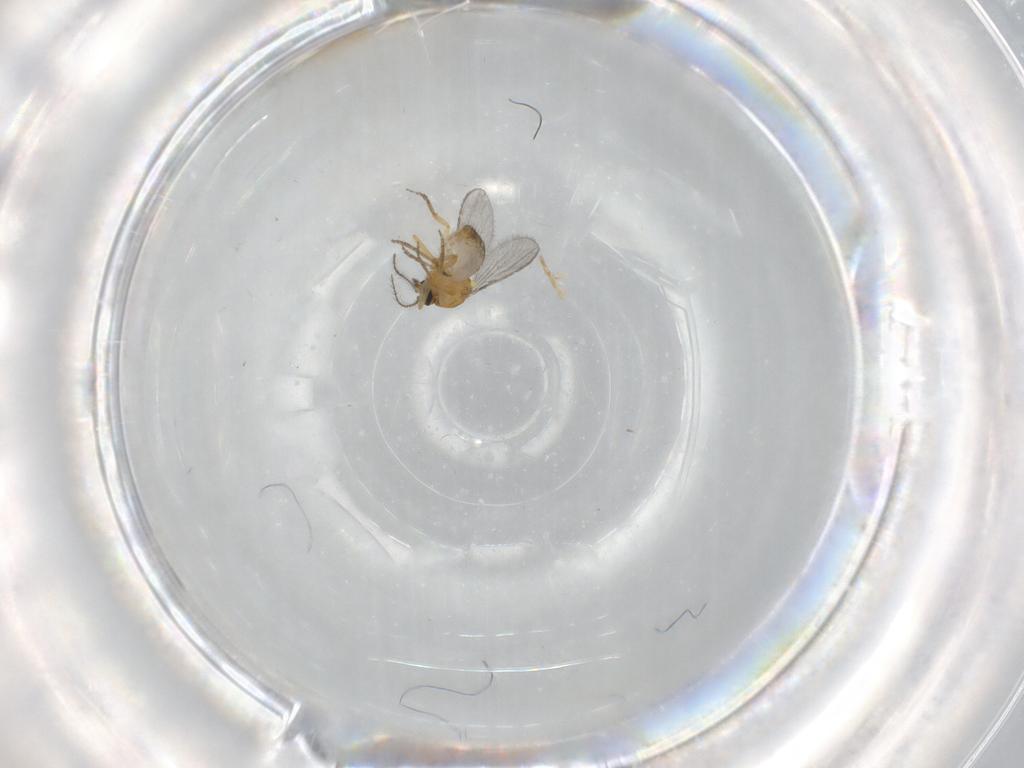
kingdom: Animalia
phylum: Arthropoda
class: Insecta
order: Diptera
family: Ceratopogonidae
